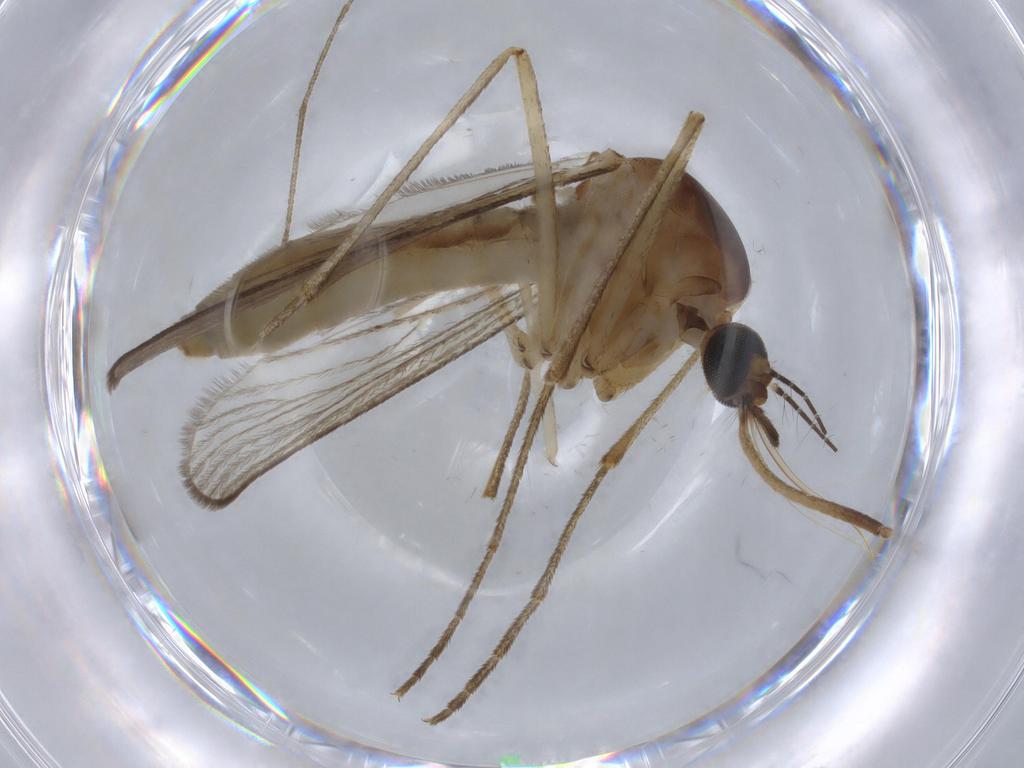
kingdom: Animalia
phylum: Arthropoda
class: Insecta
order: Diptera
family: Culicidae
